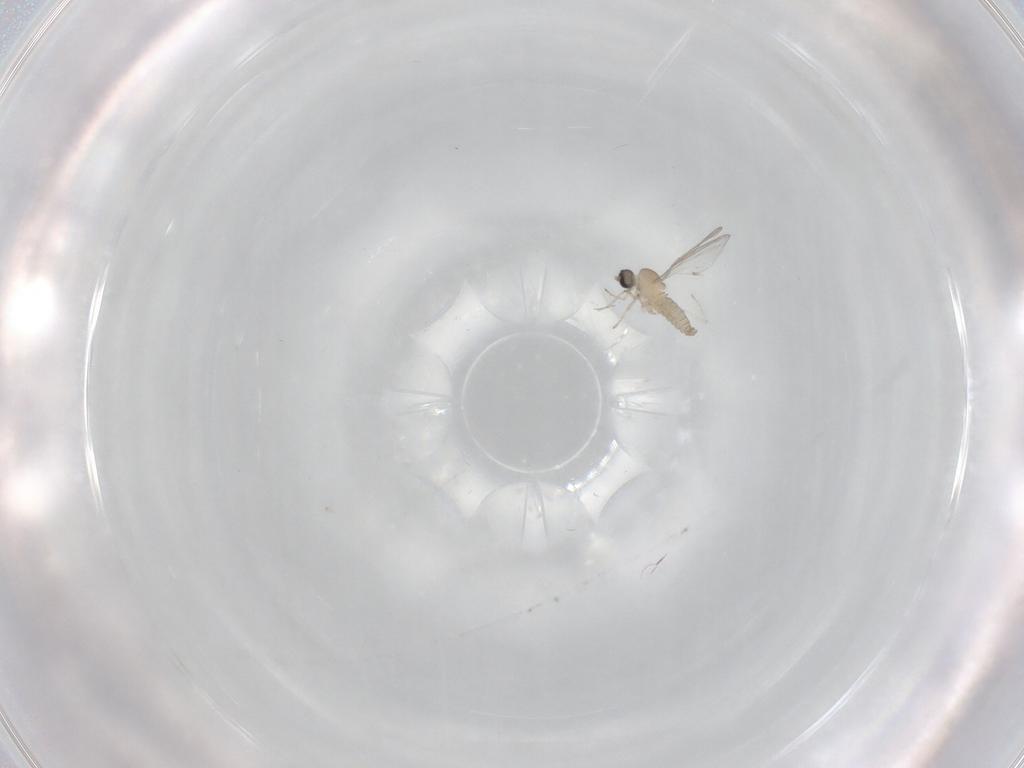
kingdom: Animalia
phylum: Arthropoda
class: Insecta
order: Diptera
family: Cecidomyiidae
